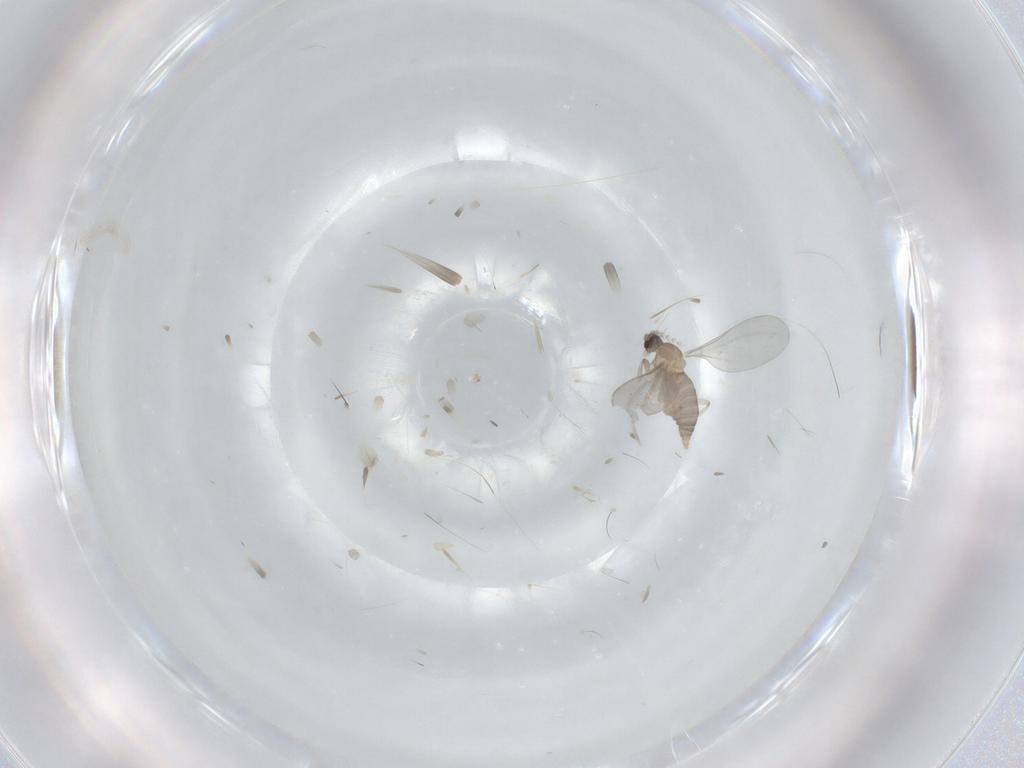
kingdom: Animalia
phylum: Arthropoda
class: Insecta
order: Diptera
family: Cecidomyiidae
